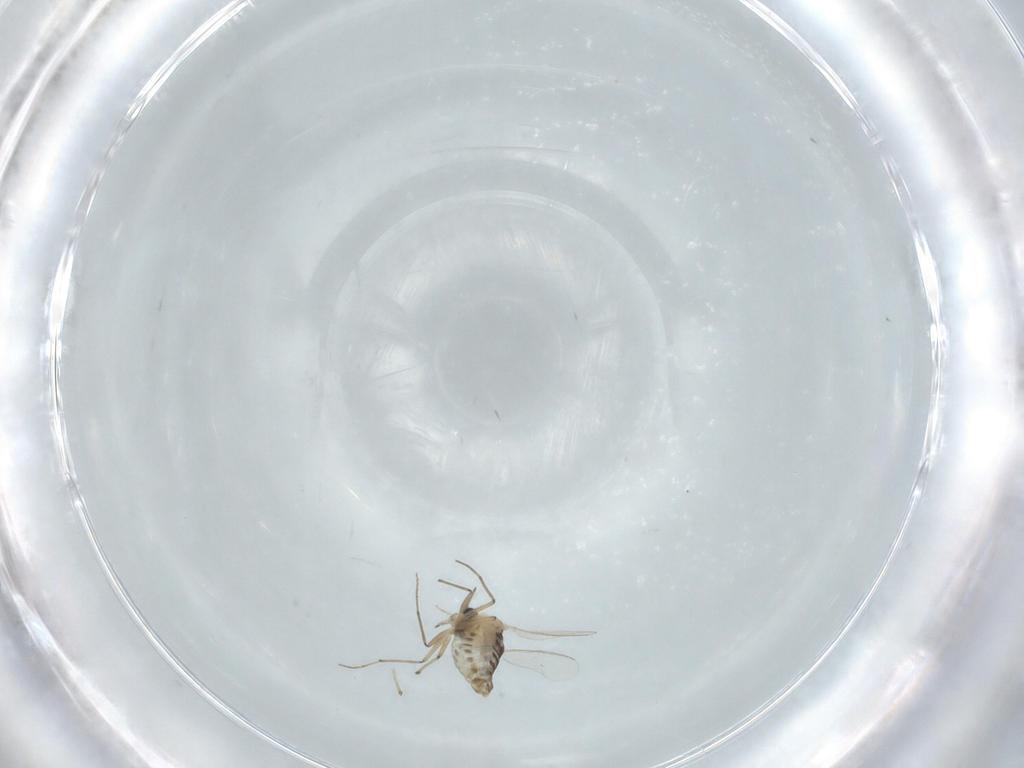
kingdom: Animalia
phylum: Arthropoda
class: Insecta
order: Diptera
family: Chironomidae
